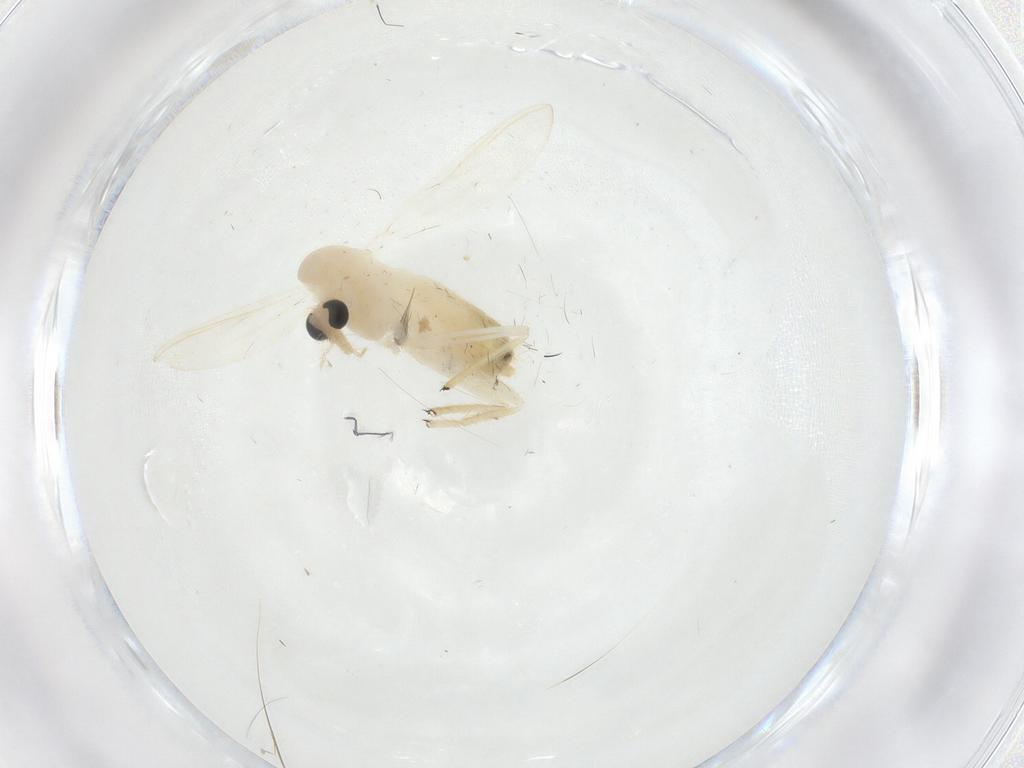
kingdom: Animalia
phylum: Arthropoda
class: Insecta
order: Diptera
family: Chironomidae
